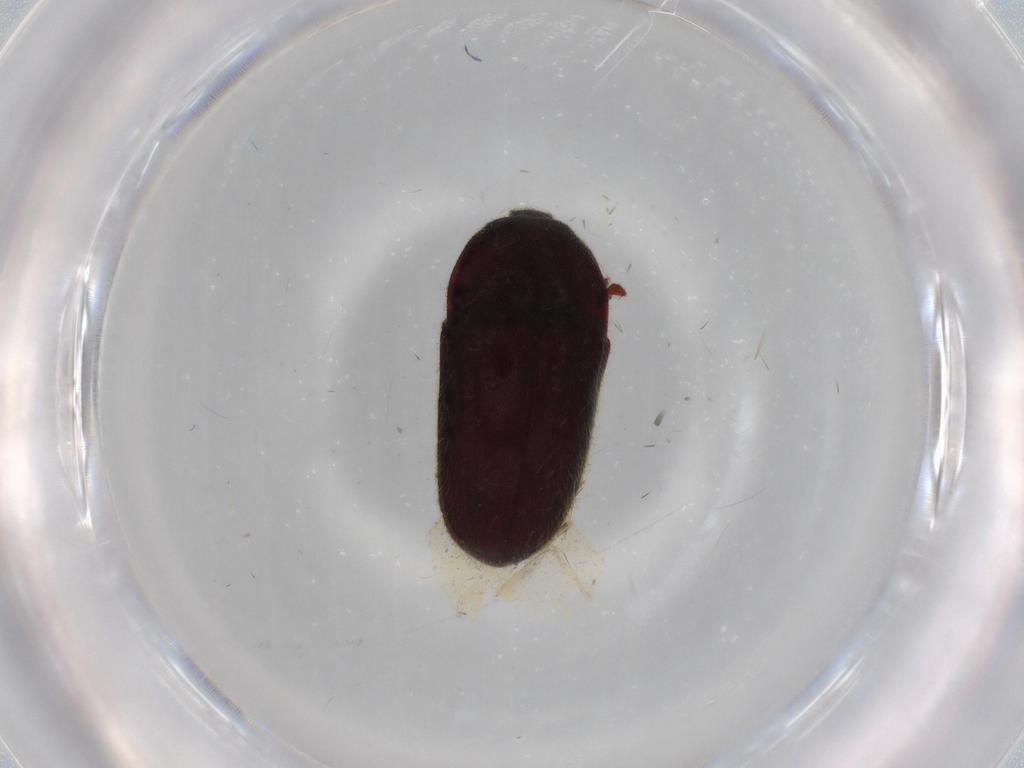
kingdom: Animalia
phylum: Arthropoda
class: Insecta
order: Coleoptera
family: Throscidae
